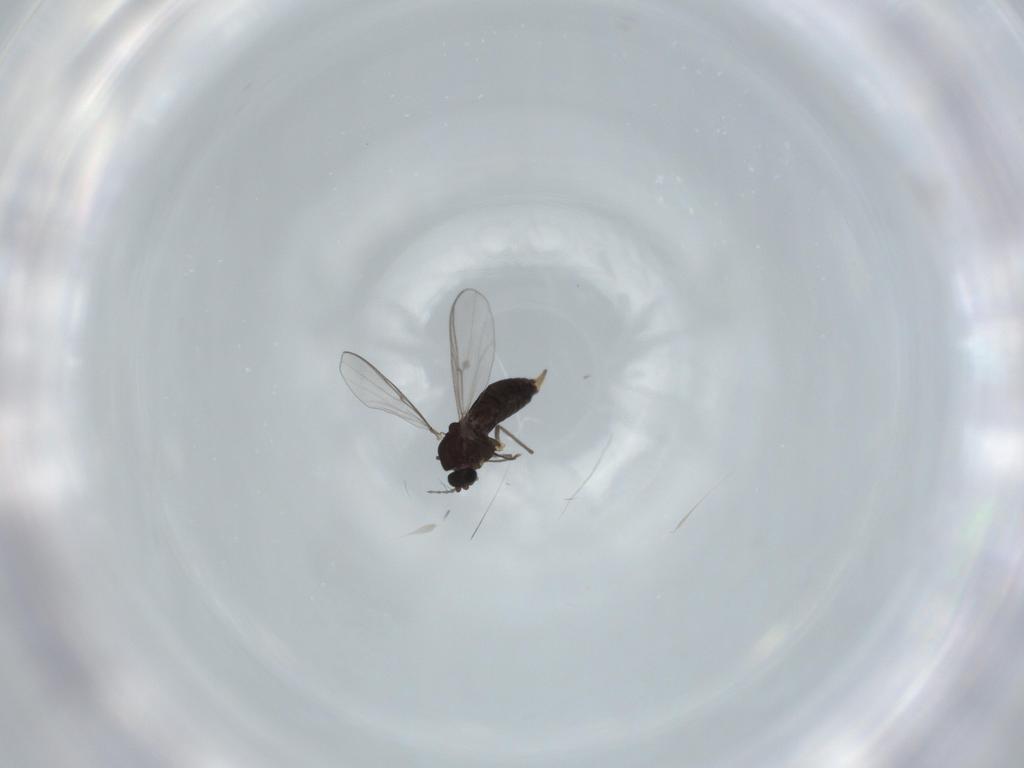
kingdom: Animalia
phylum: Arthropoda
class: Insecta
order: Diptera
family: Chironomidae
